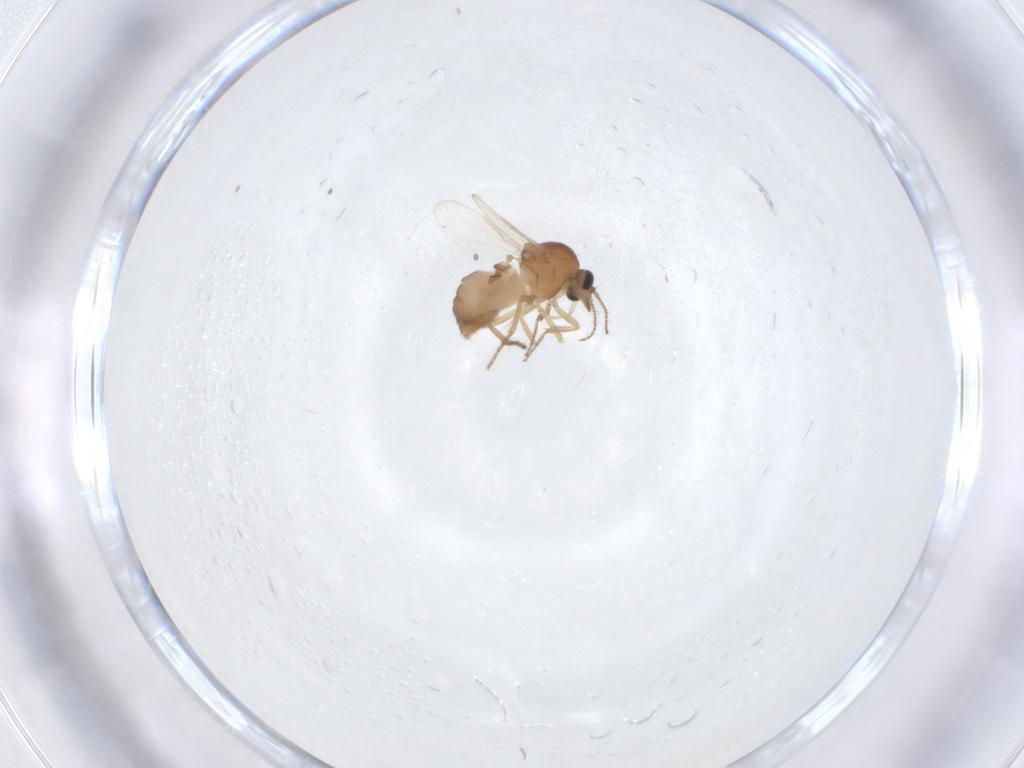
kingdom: Animalia
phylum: Arthropoda
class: Insecta
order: Diptera
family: Ceratopogonidae
